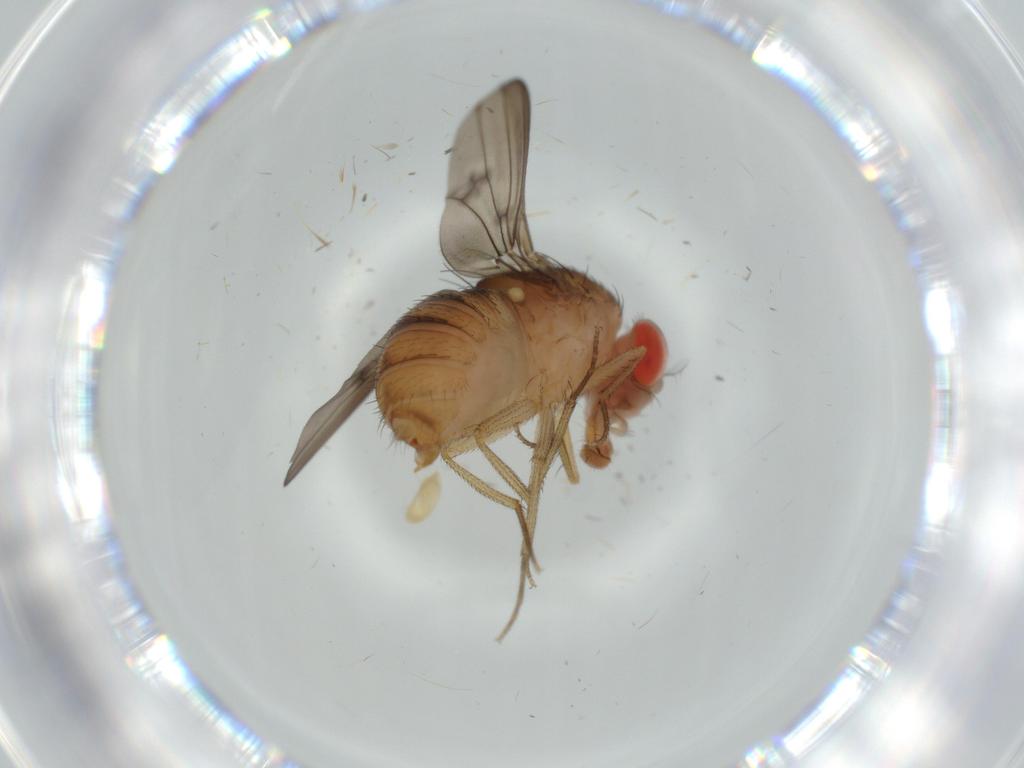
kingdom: Animalia
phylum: Arthropoda
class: Insecta
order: Diptera
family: Drosophilidae
